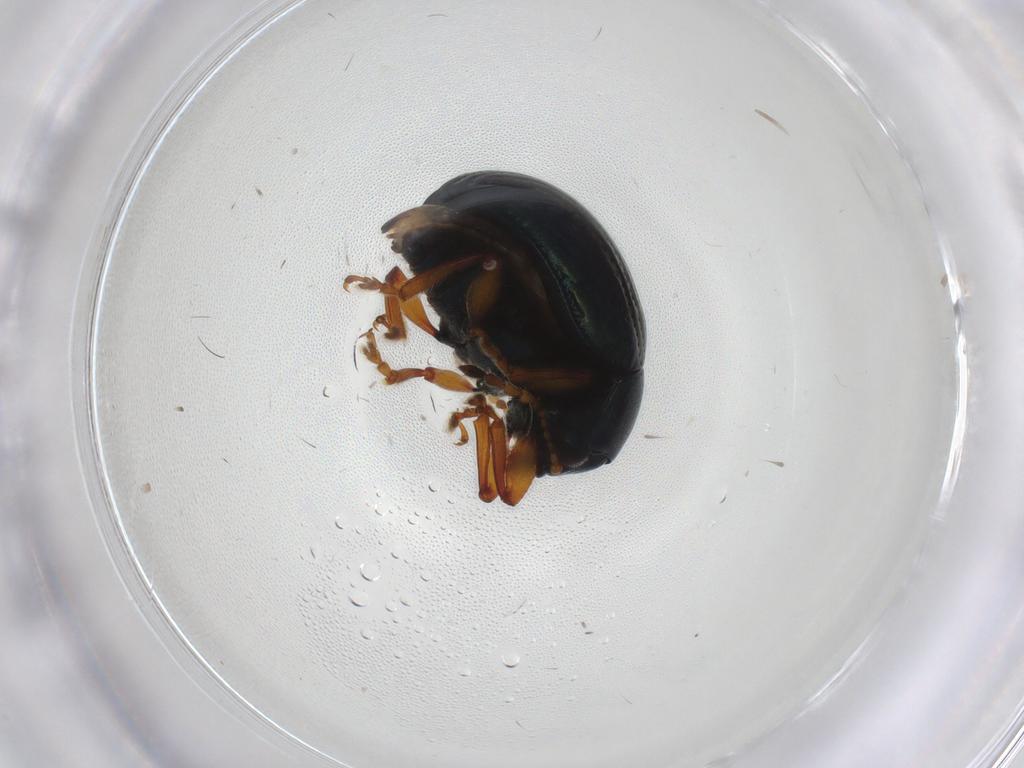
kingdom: Animalia
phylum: Arthropoda
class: Insecta
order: Coleoptera
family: Chrysomelidae
